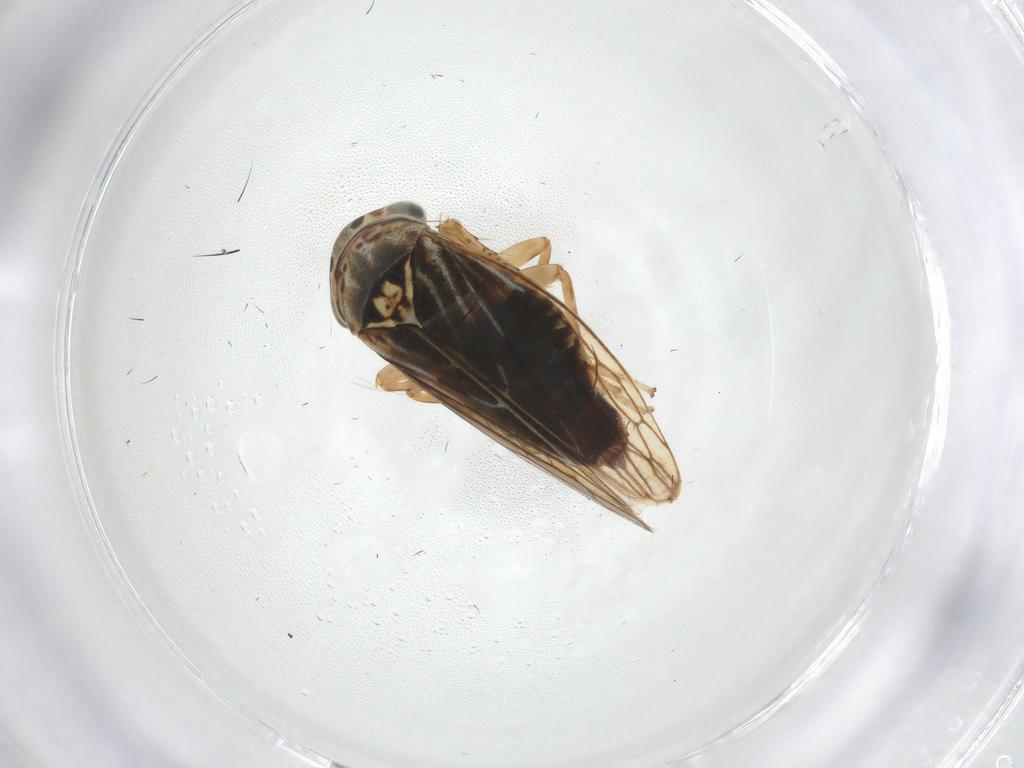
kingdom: Animalia
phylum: Arthropoda
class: Insecta
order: Hemiptera
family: Cicadellidae
